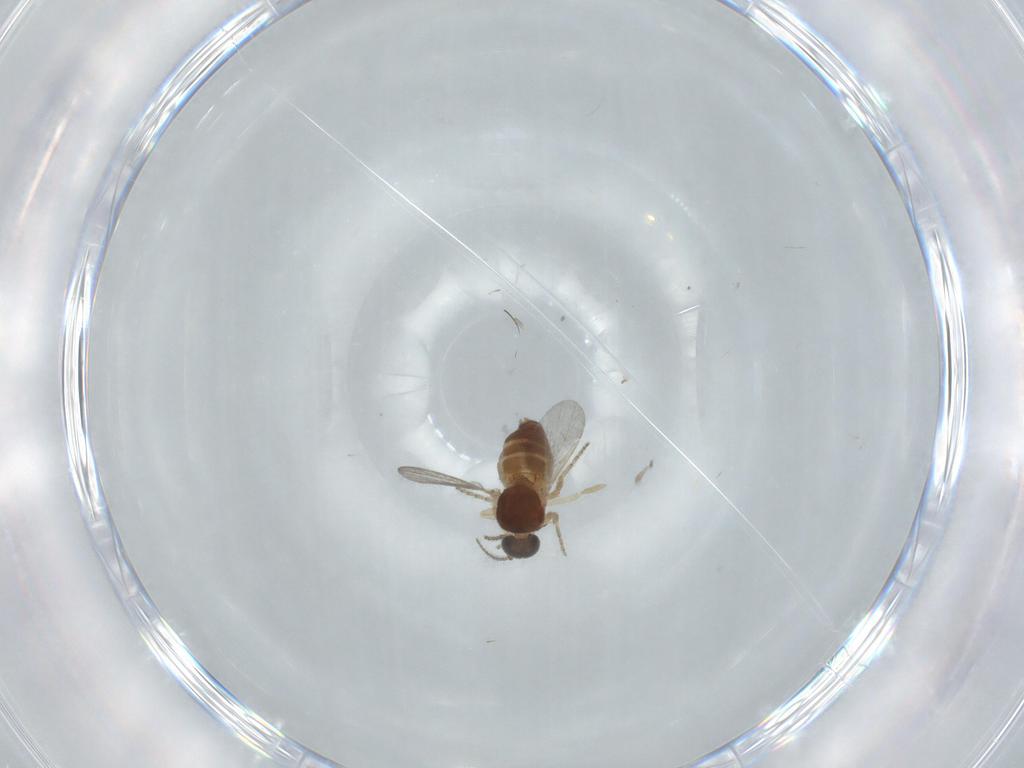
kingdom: Animalia
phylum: Arthropoda
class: Insecta
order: Diptera
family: Ceratopogonidae
